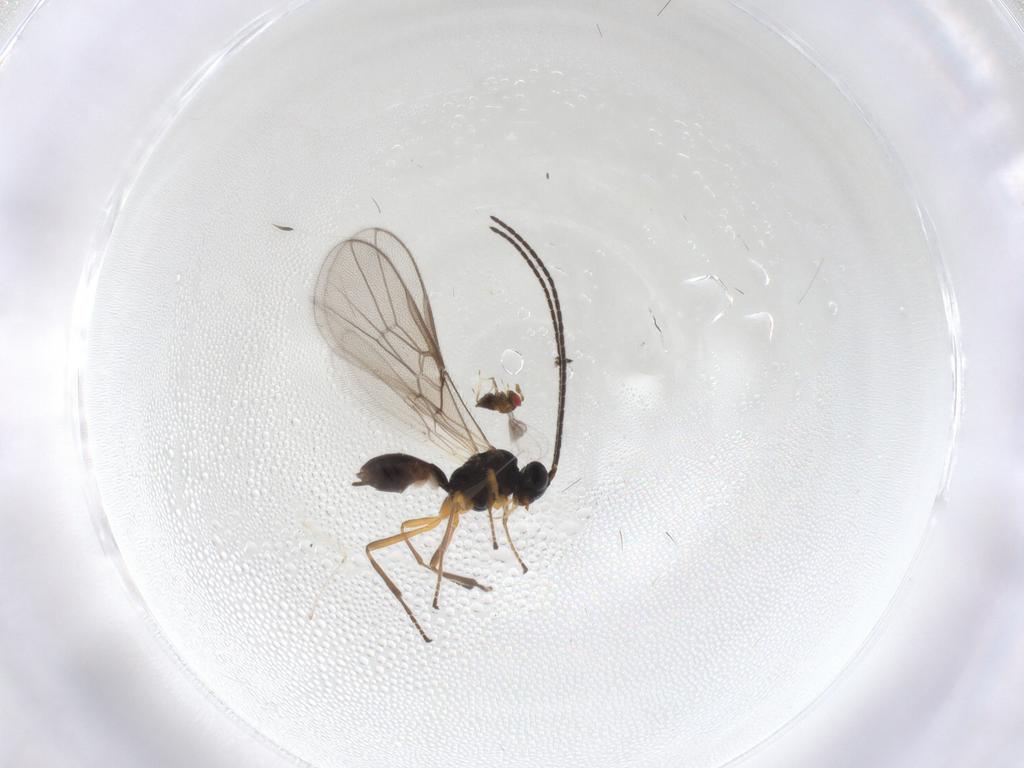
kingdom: Animalia
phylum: Arthropoda
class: Insecta
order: Hymenoptera
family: Braconidae
